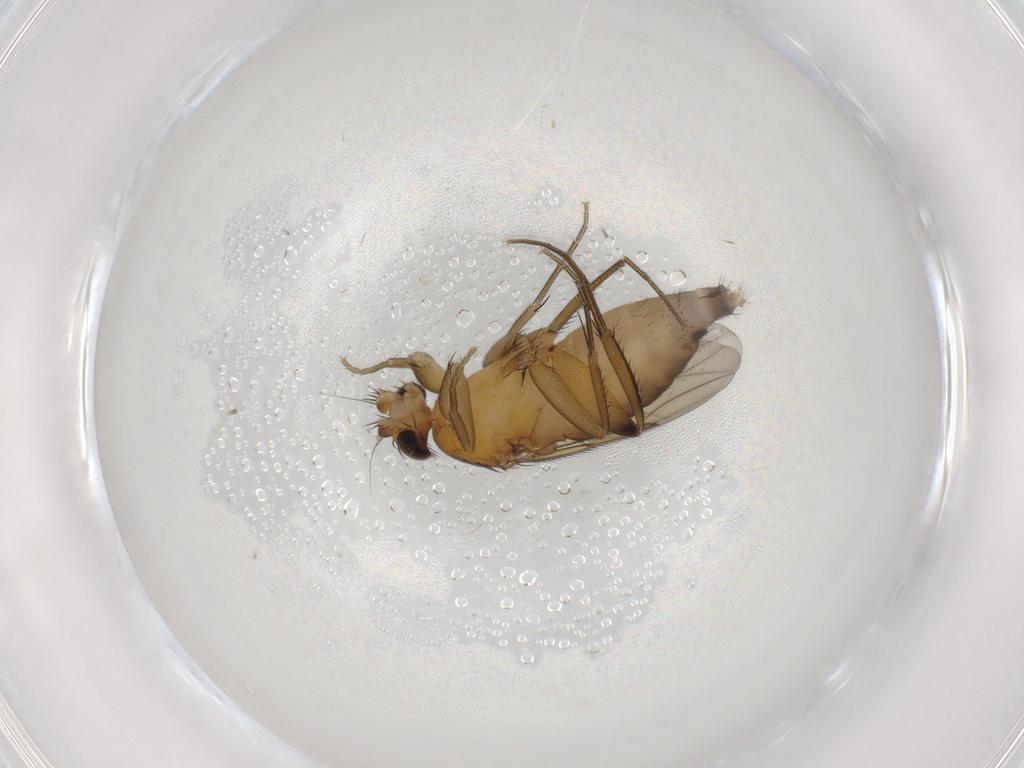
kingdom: Animalia
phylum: Arthropoda
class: Insecta
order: Diptera
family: Phoridae
